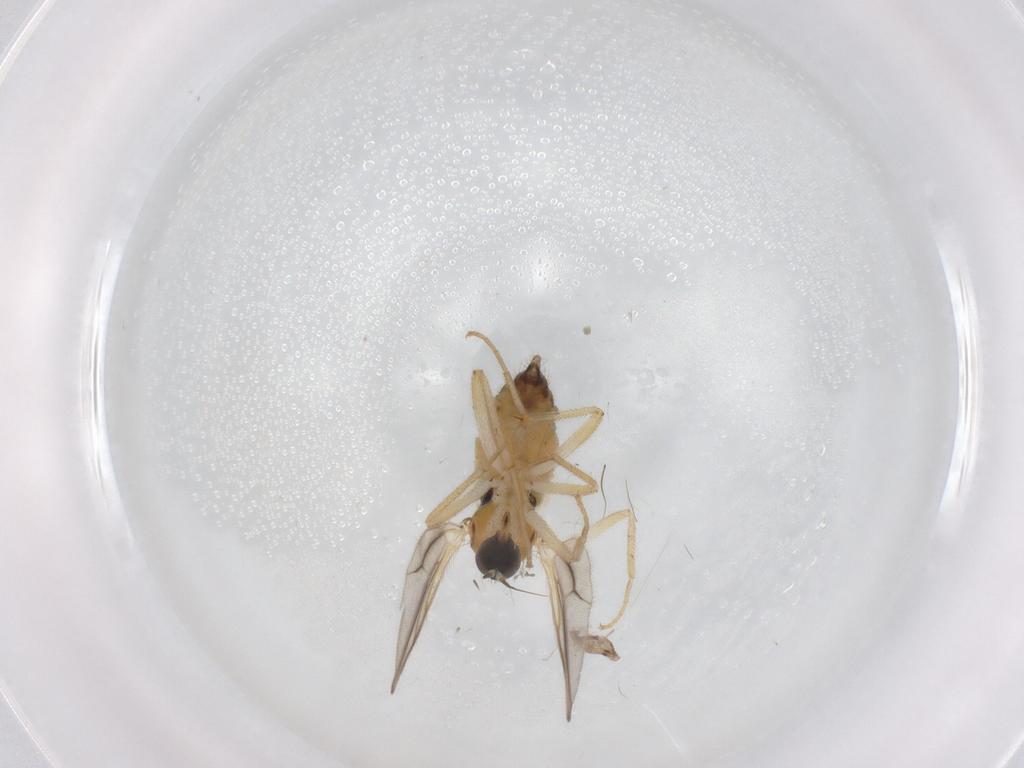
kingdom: Animalia
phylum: Arthropoda
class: Insecta
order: Diptera
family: Hybotidae
